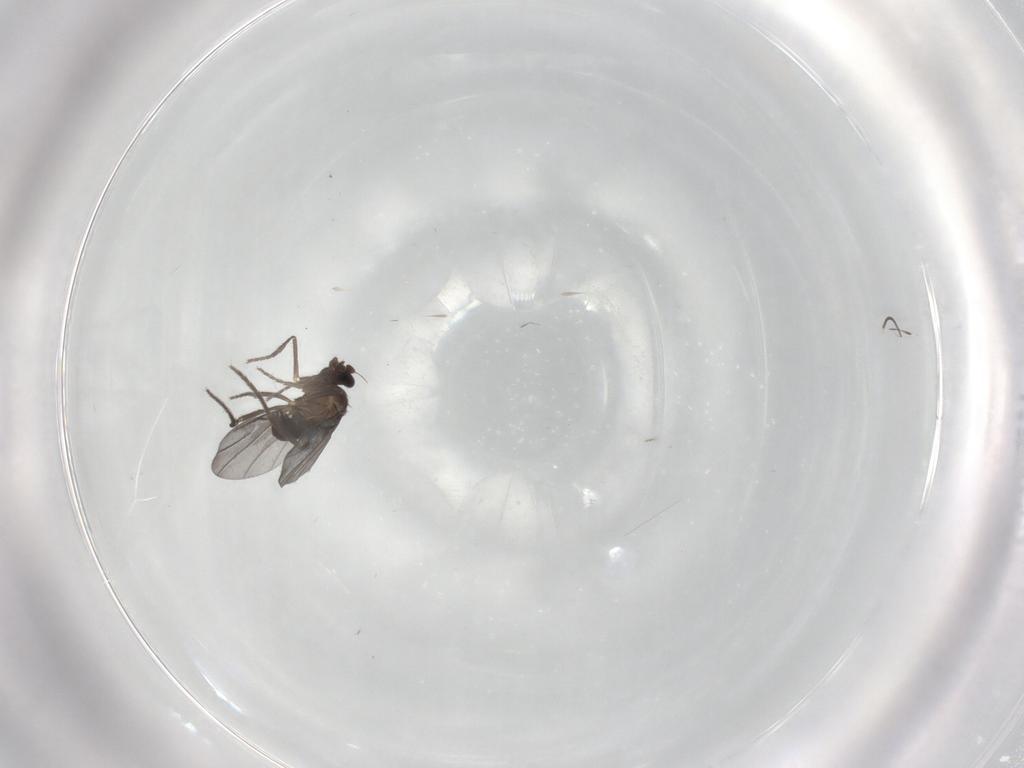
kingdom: Animalia
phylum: Arthropoda
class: Insecta
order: Diptera
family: Phoridae
